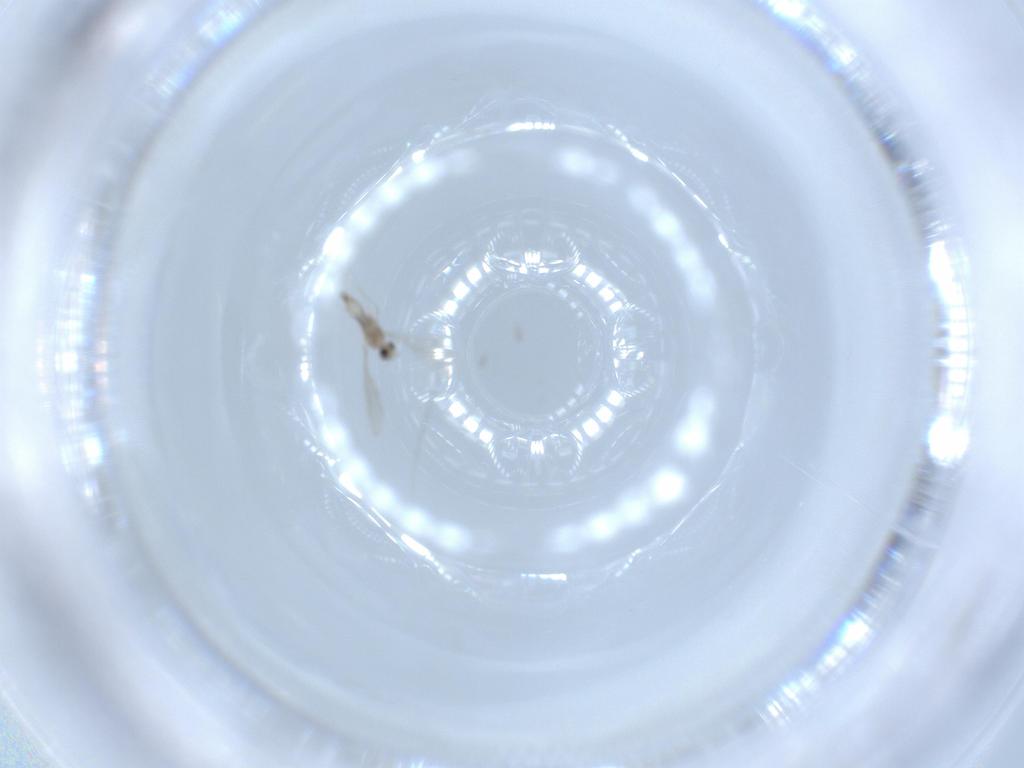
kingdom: Animalia
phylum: Arthropoda
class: Insecta
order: Diptera
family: Cecidomyiidae
